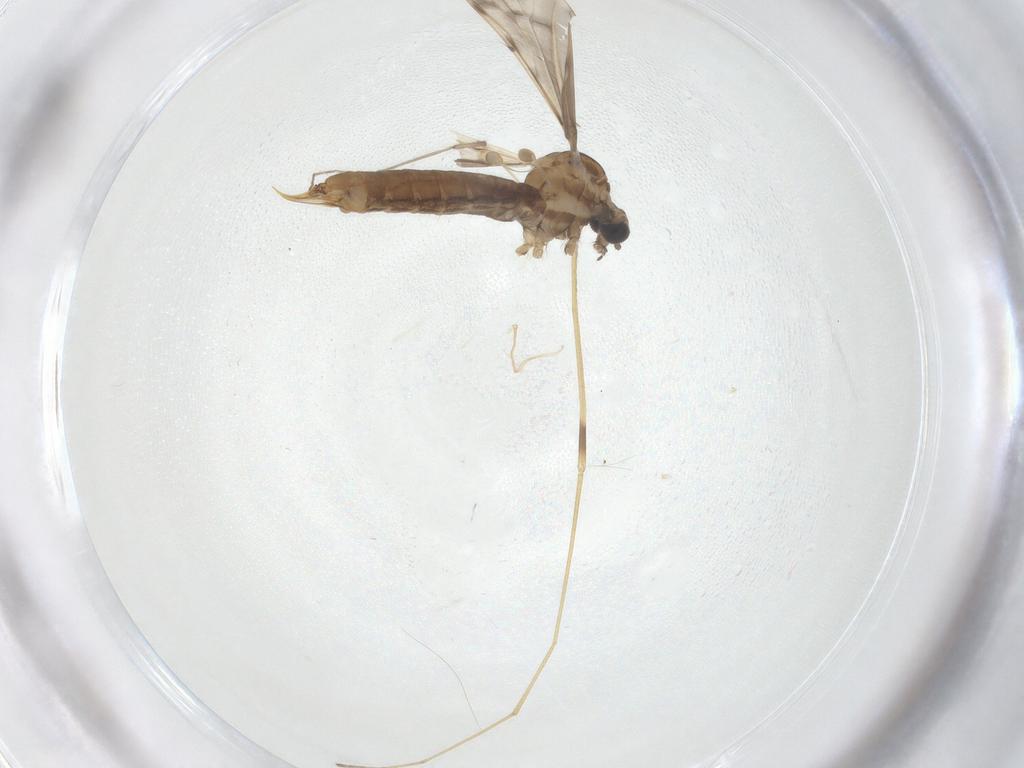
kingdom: Animalia
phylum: Arthropoda
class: Insecta
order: Diptera
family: Limoniidae
